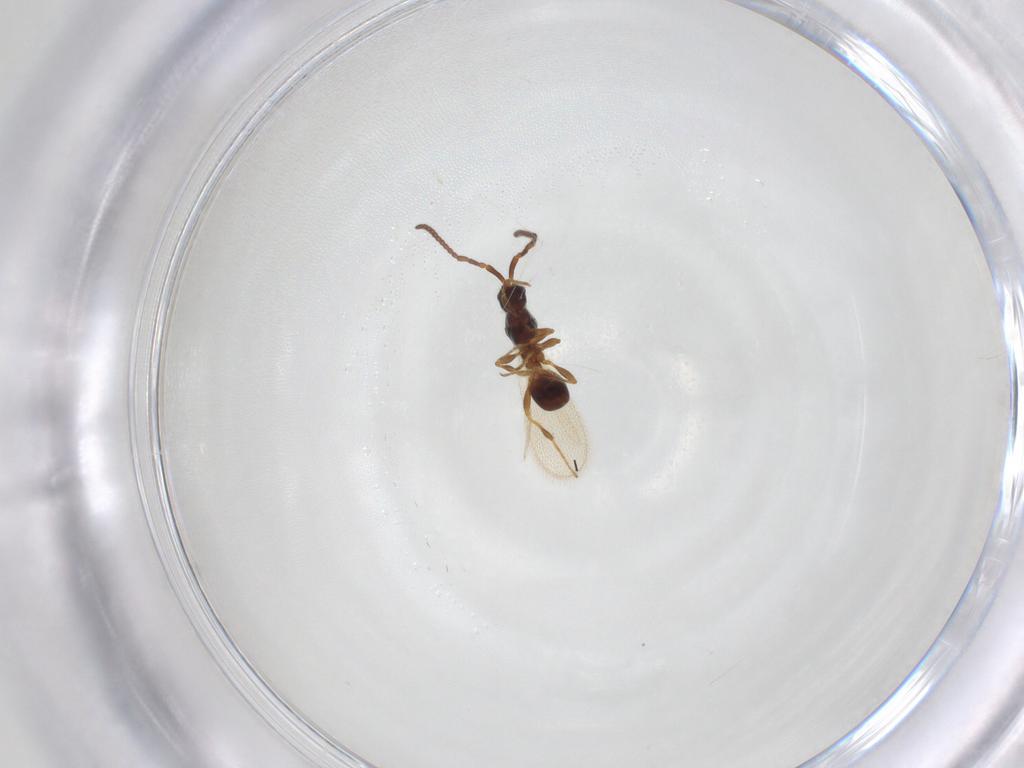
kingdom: Animalia
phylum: Arthropoda
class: Insecta
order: Hymenoptera
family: Diapriidae
